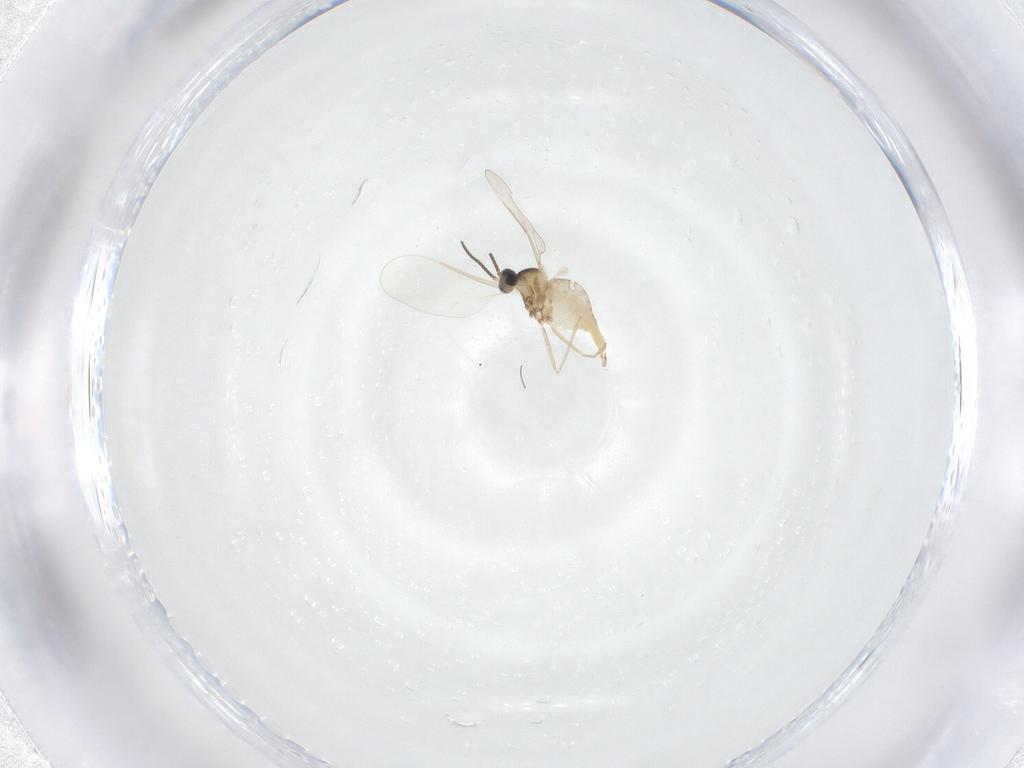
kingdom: Animalia
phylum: Arthropoda
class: Insecta
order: Diptera
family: Cecidomyiidae
